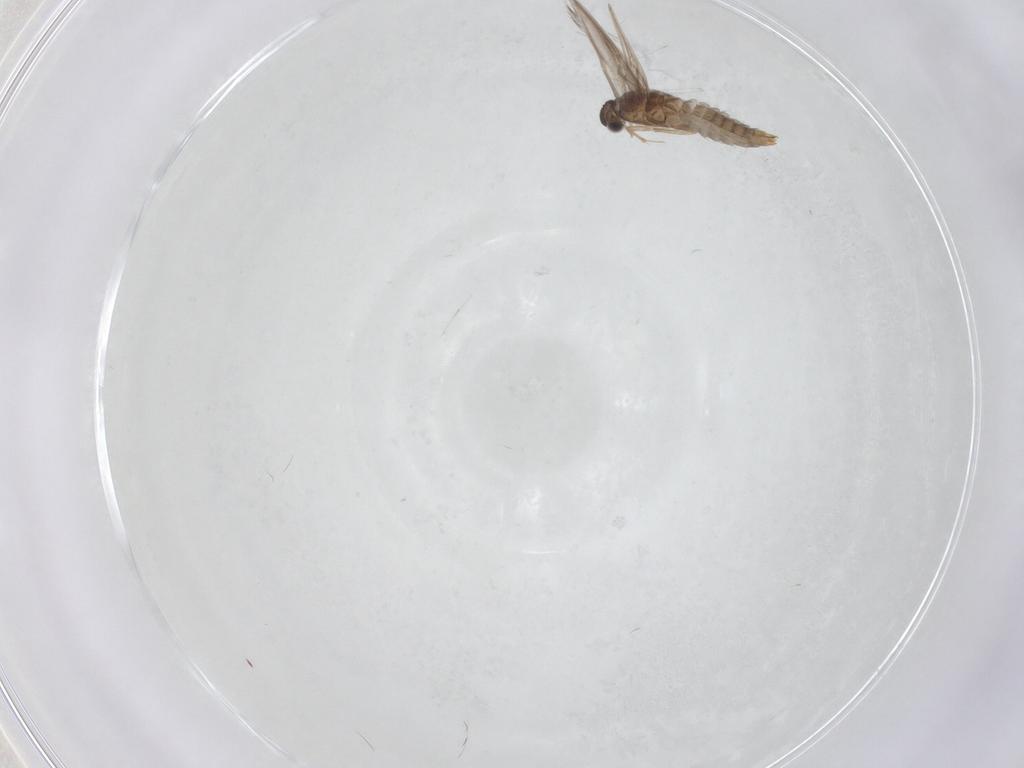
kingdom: Animalia
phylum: Arthropoda
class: Insecta
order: Trichoptera
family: Hydroptilidae
